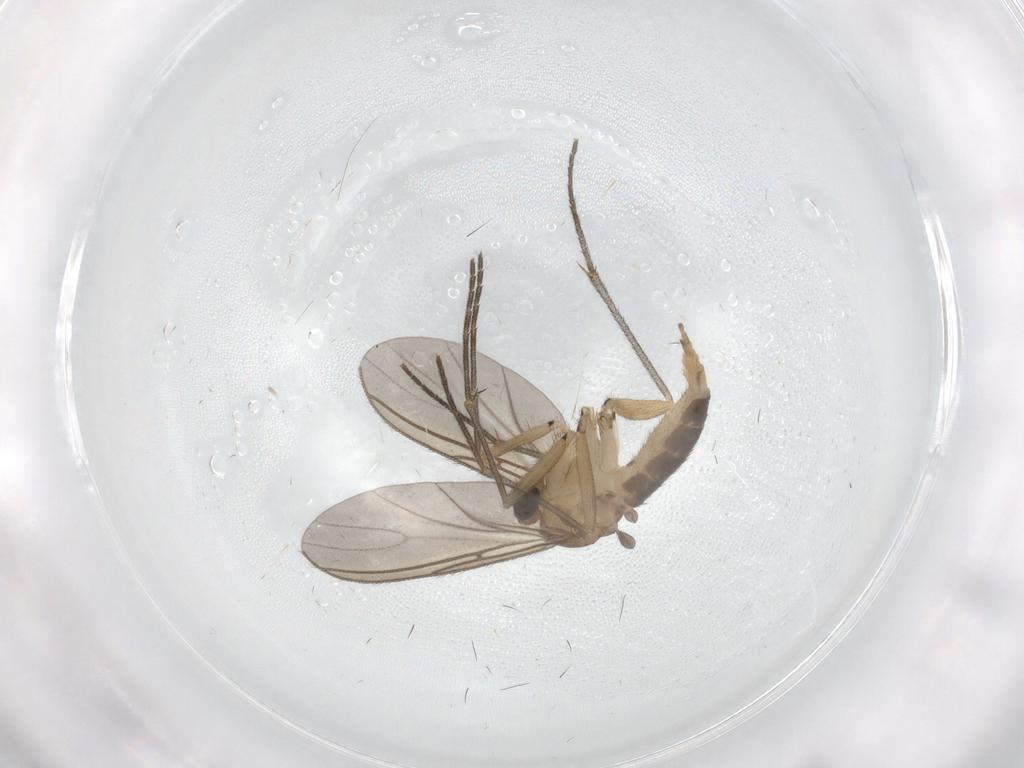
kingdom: Animalia
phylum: Arthropoda
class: Insecta
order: Diptera
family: Sciaridae
